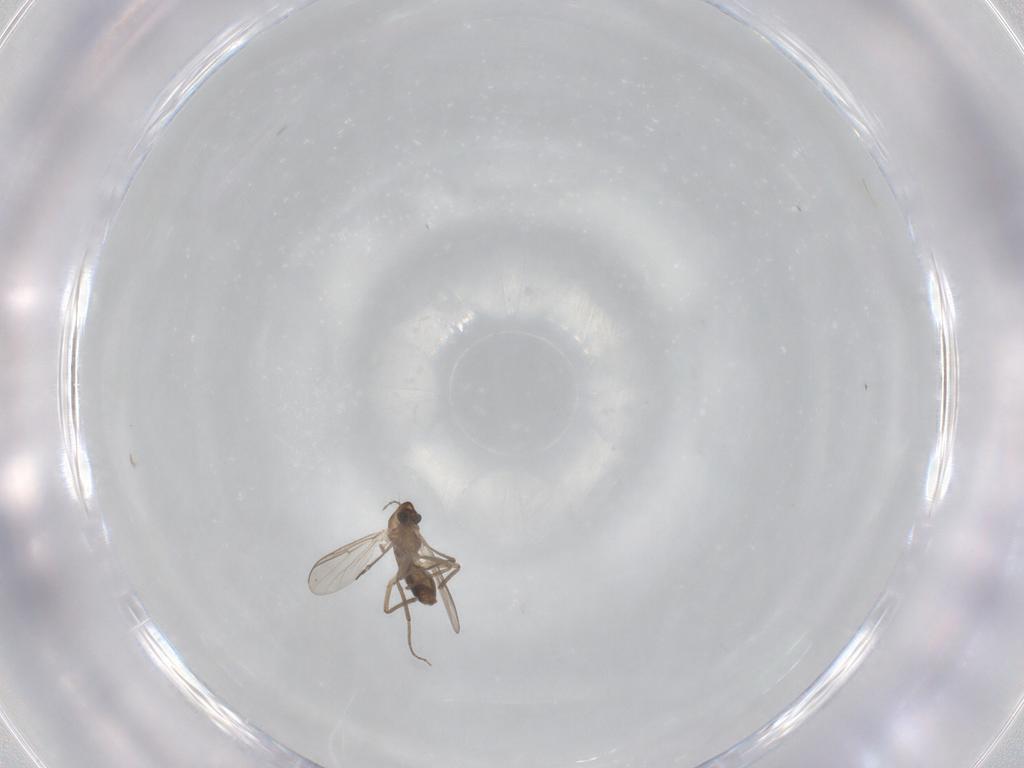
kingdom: Animalia
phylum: Arthropoda
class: Insecta
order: Diptera
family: Chironomidae
